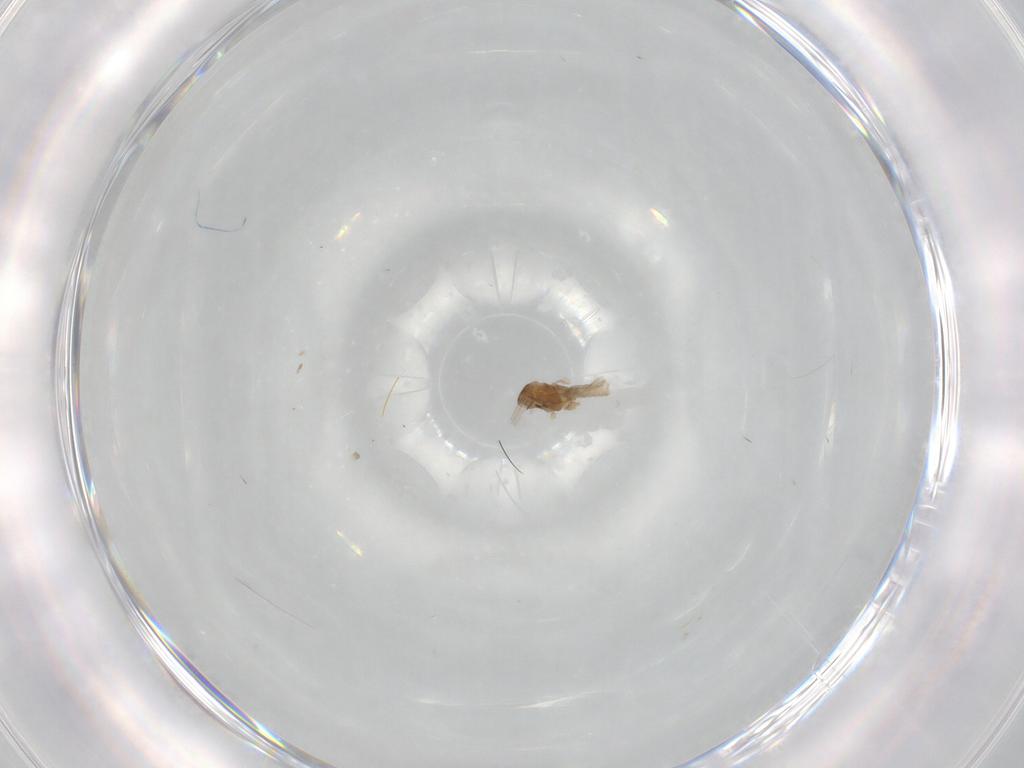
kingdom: Animalia
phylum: Arthropoda
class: Insecta
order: Diptera
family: Cecidomyiidae
